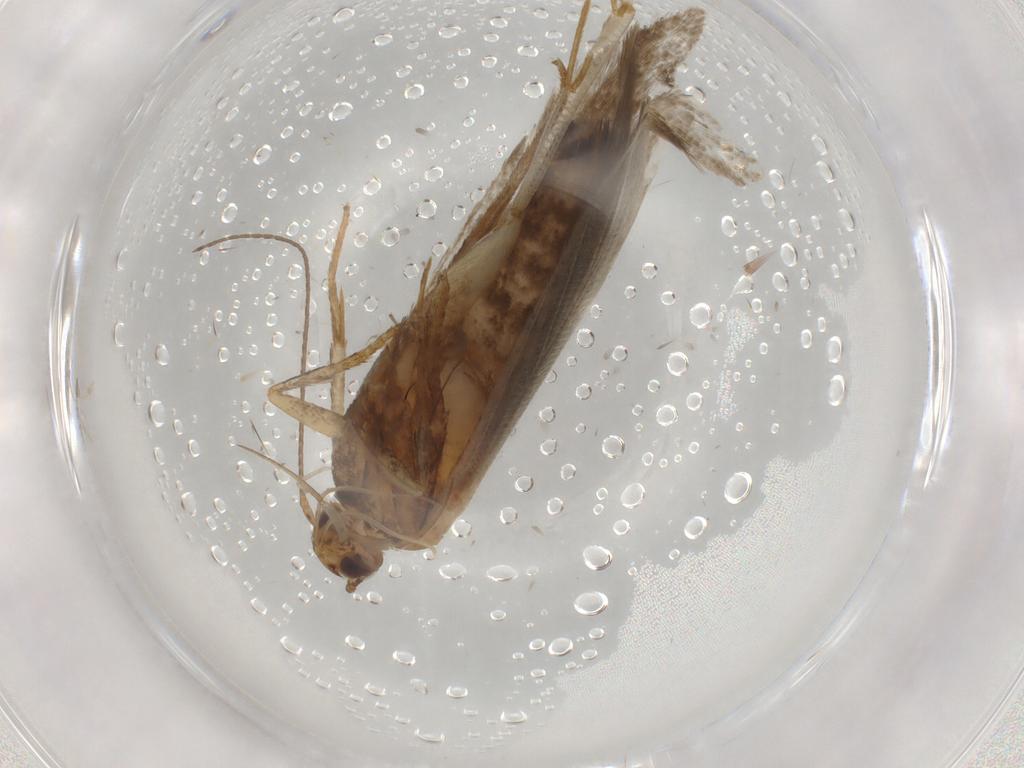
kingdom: Animalia
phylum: Arthropoda
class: Insecta
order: Lepidoptera
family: Gelechiidae
